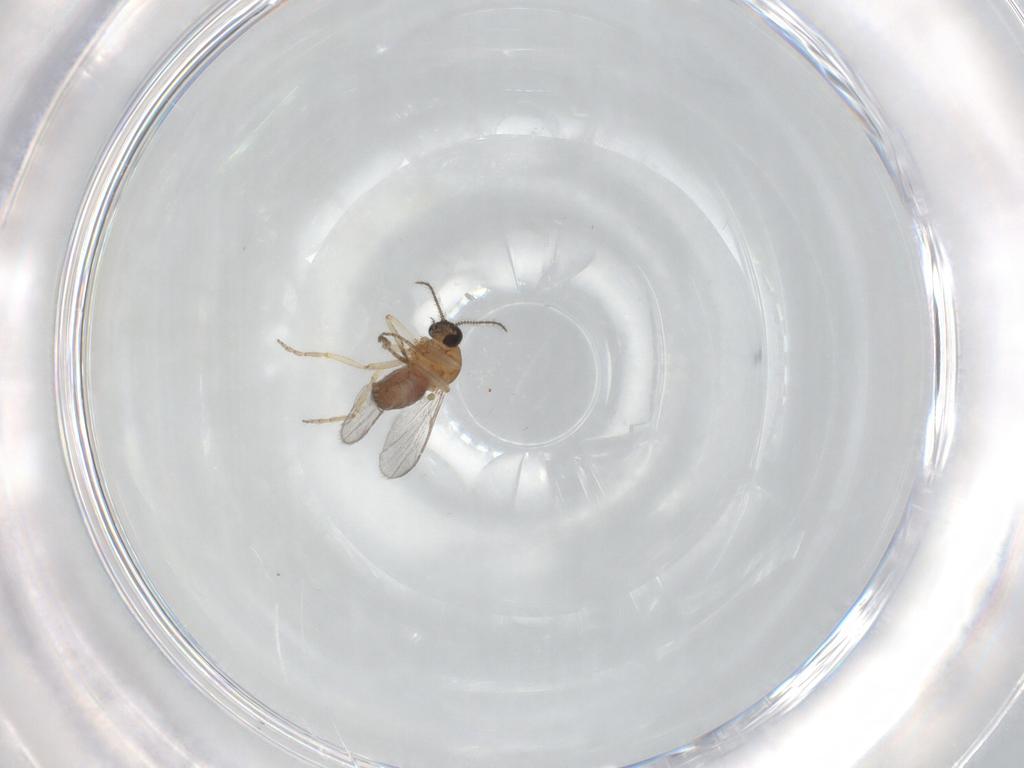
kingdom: Animalia
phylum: Arthropoda
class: Insecta
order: Diptera
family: Ceratopogonidae
